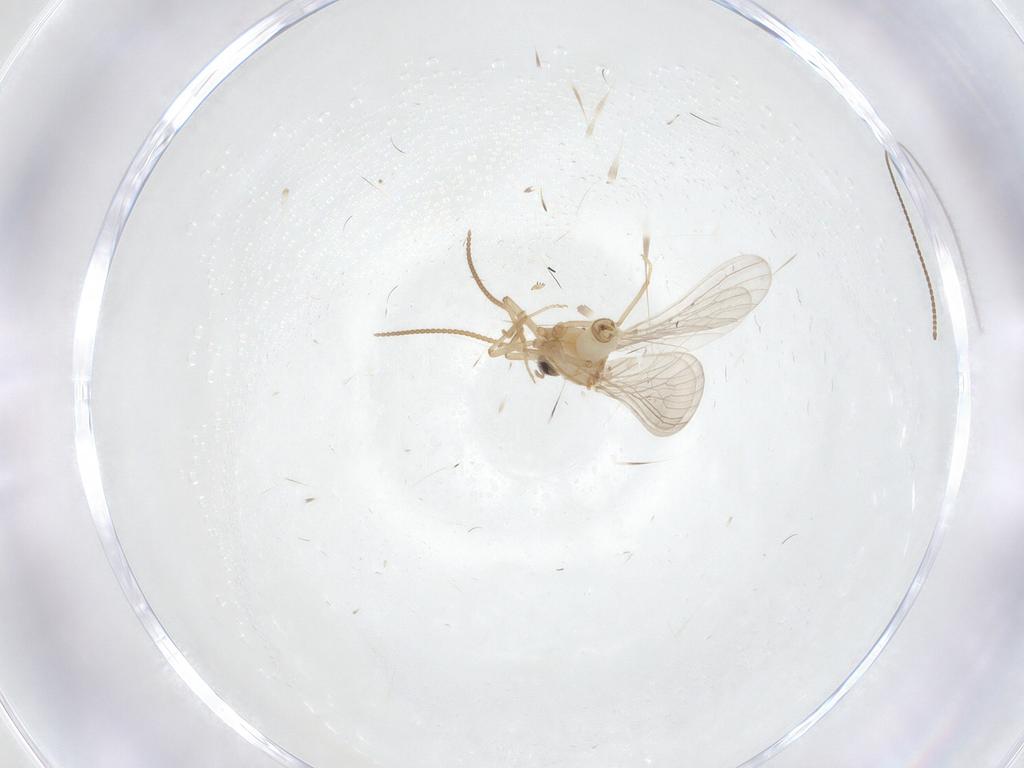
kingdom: Animalia
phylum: Arthropoda
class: Insecta
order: Neuroptera
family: Coniopterygidae
